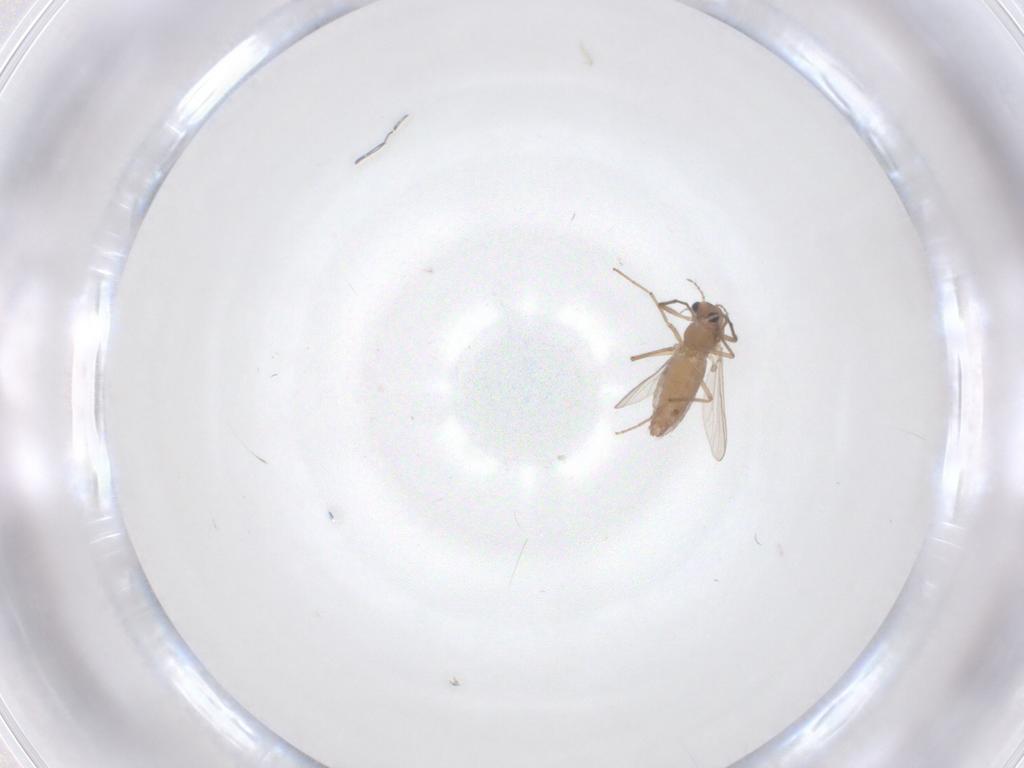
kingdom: Animalia
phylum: Arthropoda
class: Insecta
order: Diptera
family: Chironomidae
